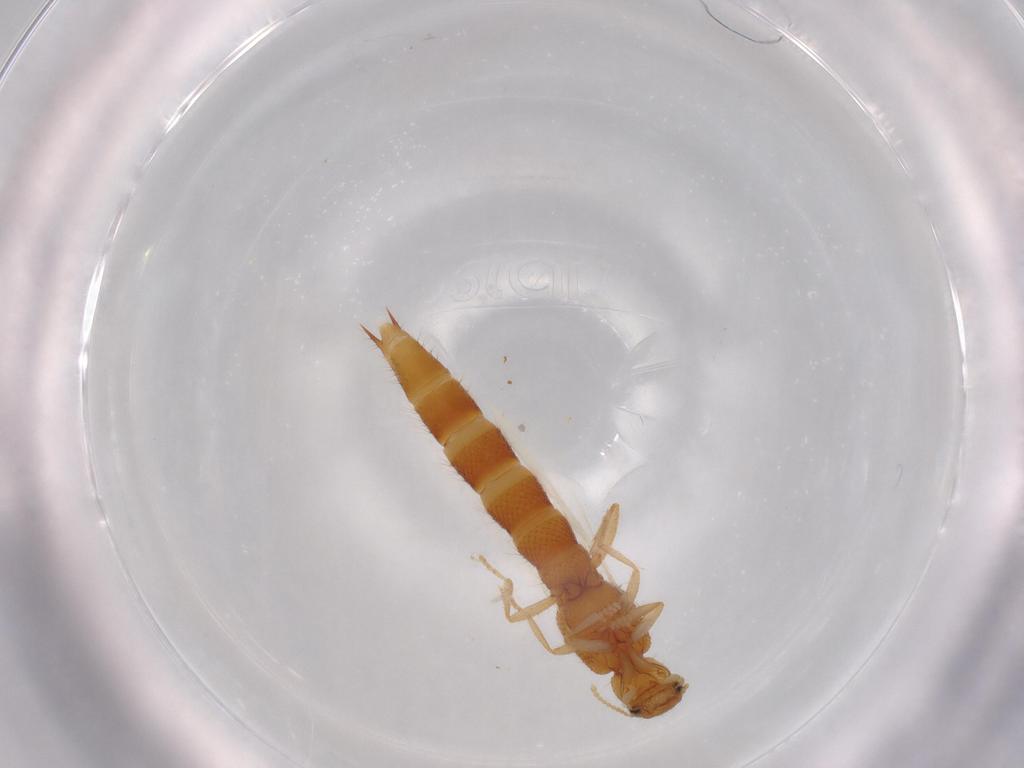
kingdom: Animalia
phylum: Arthropoda
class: Insecta
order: Coleoptera
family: Staphylinidae
